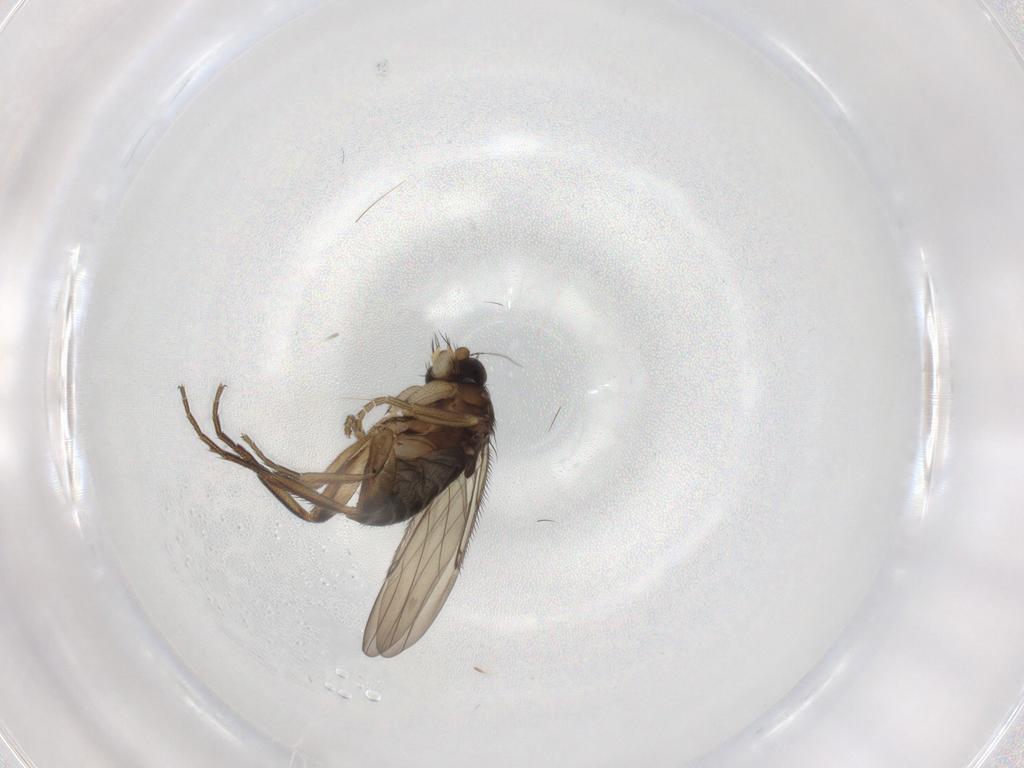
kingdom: Animalia
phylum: Arthropoda
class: Insecta
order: Diptera
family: Phoridae
